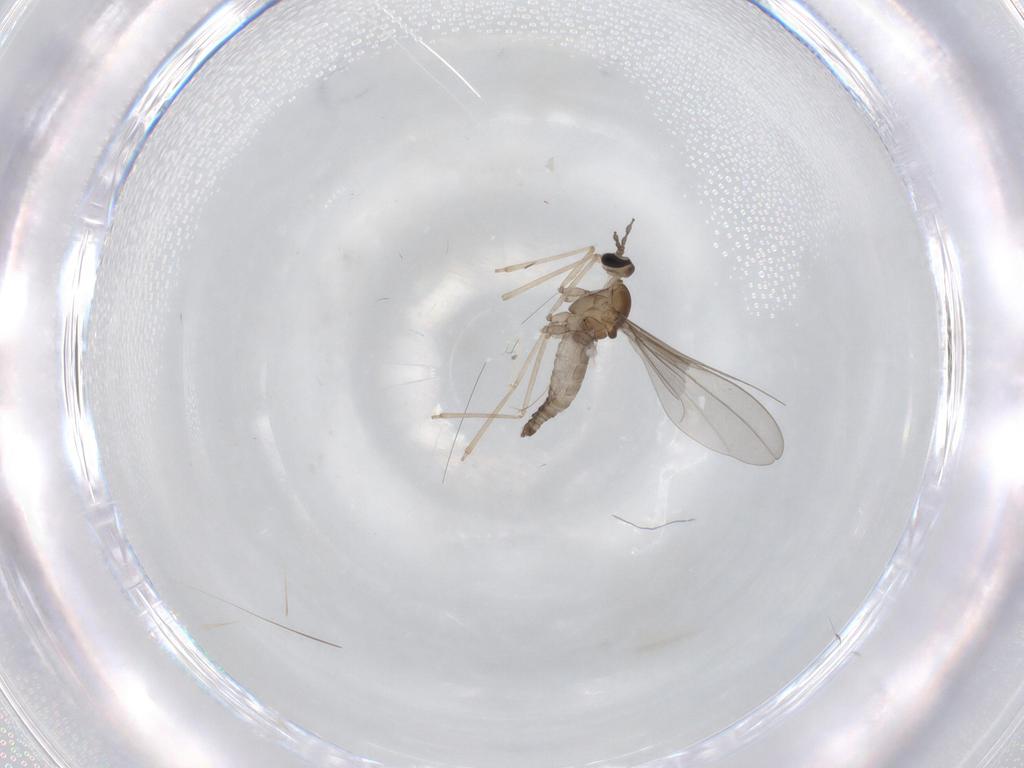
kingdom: Animalia
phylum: Arthropoda
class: Insecta
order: Diptera
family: Cecidomyiidae
